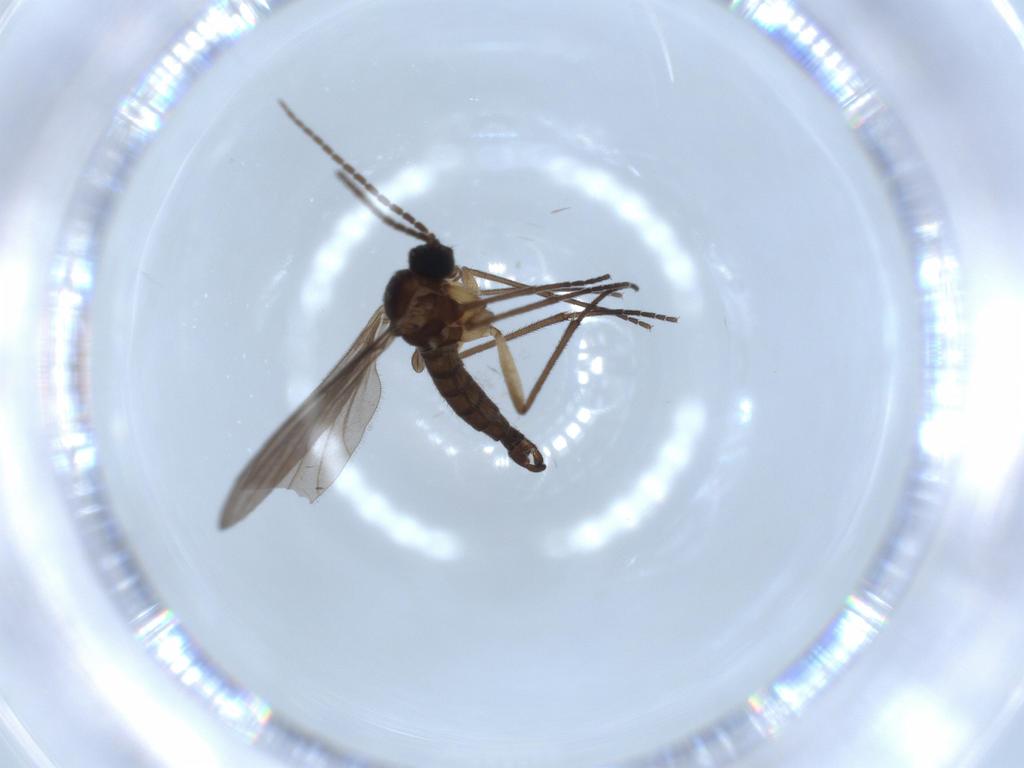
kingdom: Animalia
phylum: Arthropoda
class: Insecta
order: Diptera
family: Sciaridae
